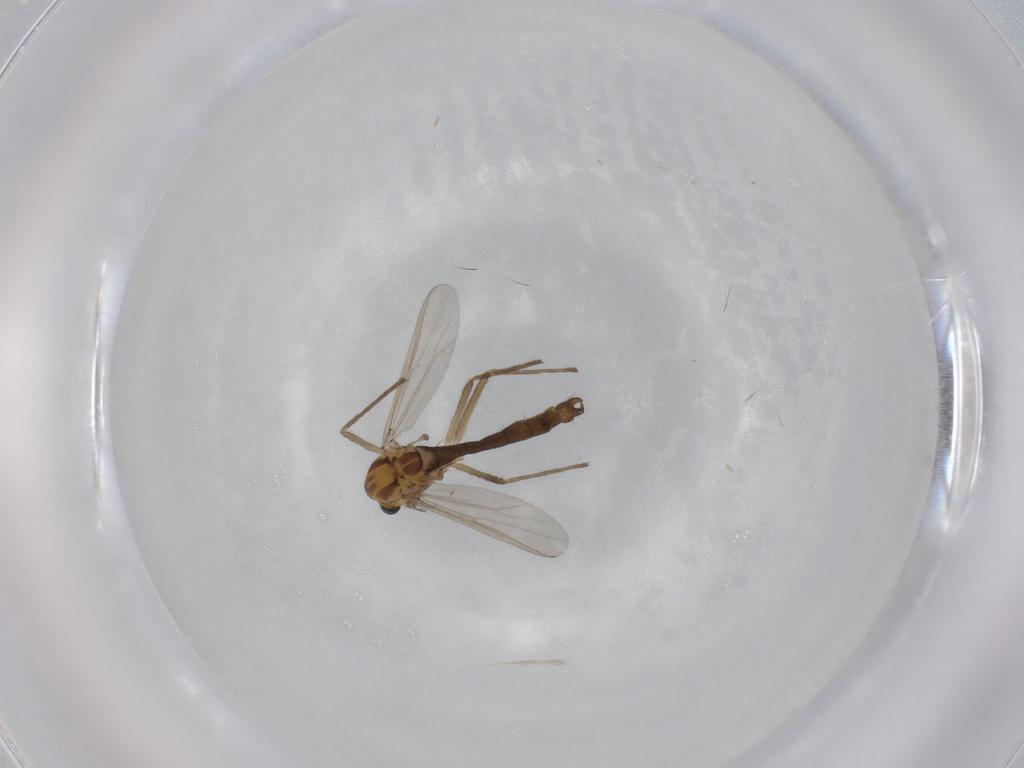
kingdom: Animalia
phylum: Arthropoda
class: Insecta
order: Diptera
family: Chironomidae
